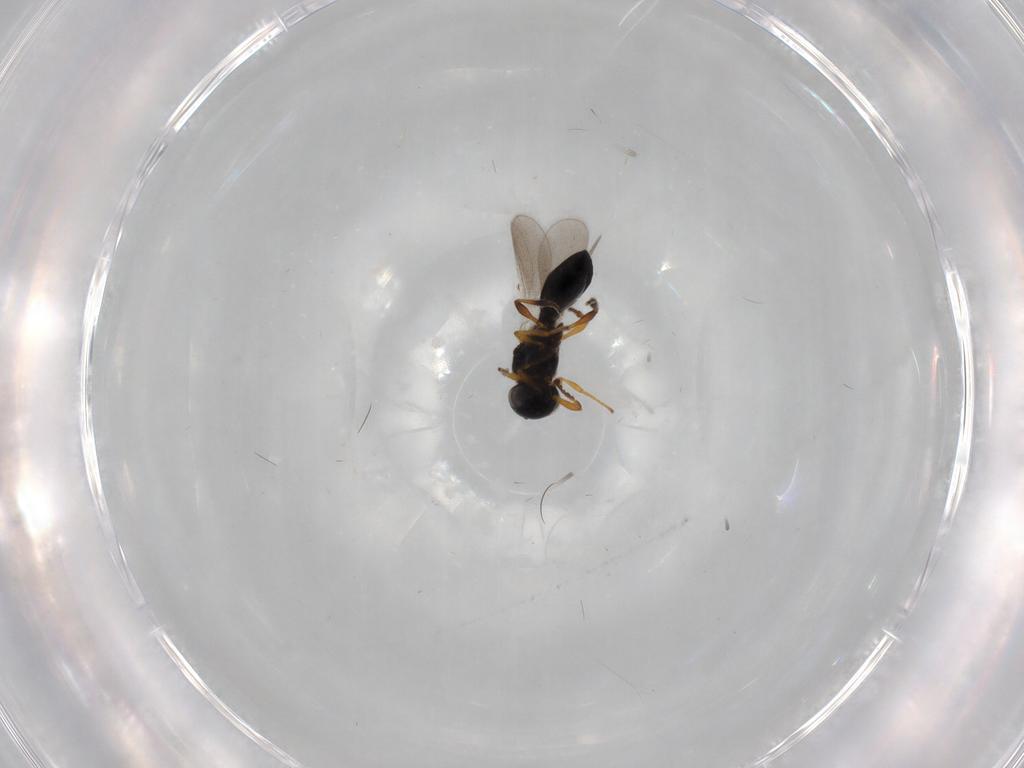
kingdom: Animalia
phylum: Arthropoda
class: Insecta
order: Hymenoptera
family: Platygastridae
